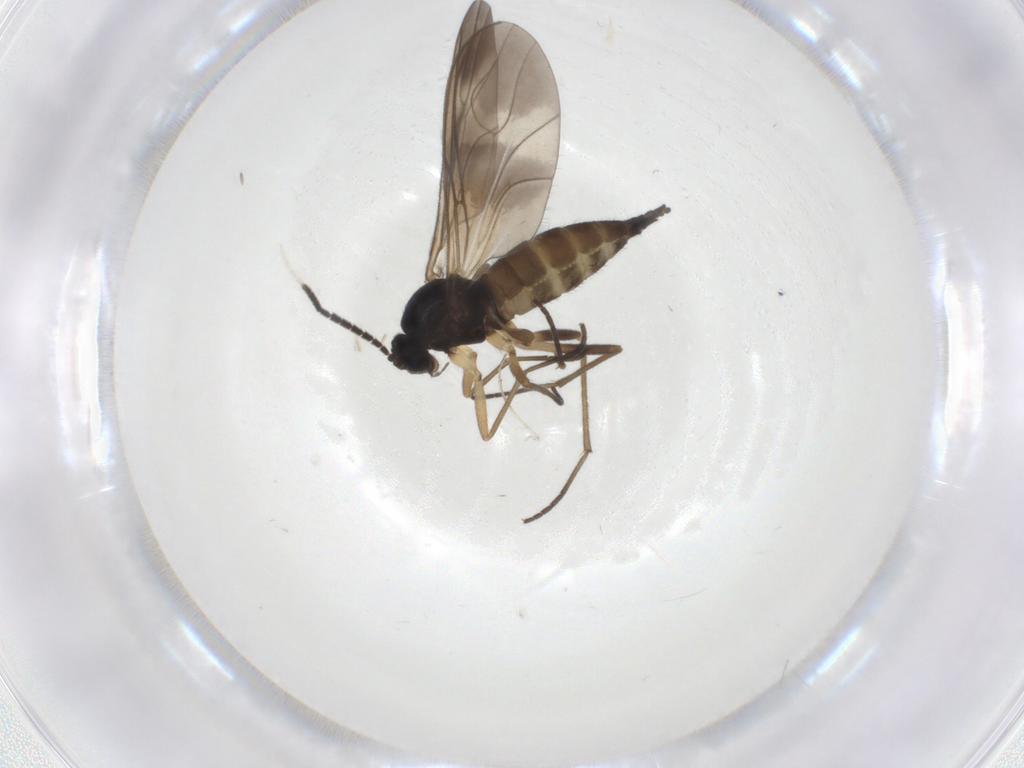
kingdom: Animalia
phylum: Arthropoda
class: Insecta
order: Diptera
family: Sciaridae
